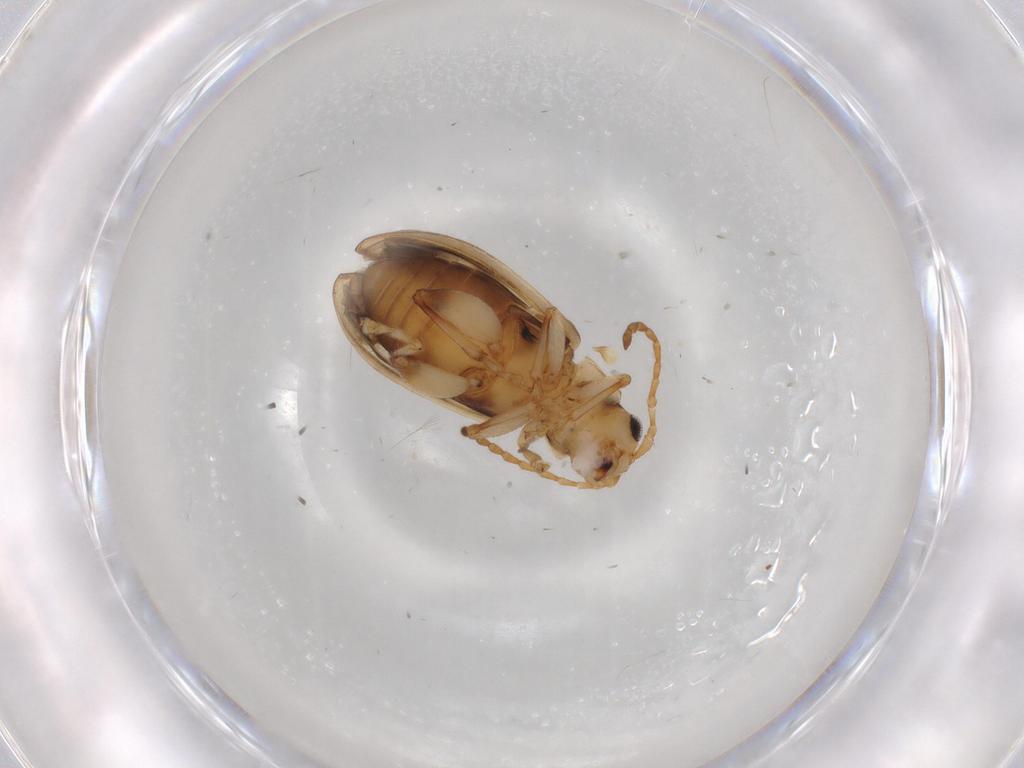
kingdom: Animalia
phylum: Arthropoda
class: Insecta
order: Coleoptera
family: Chrysomelidae
